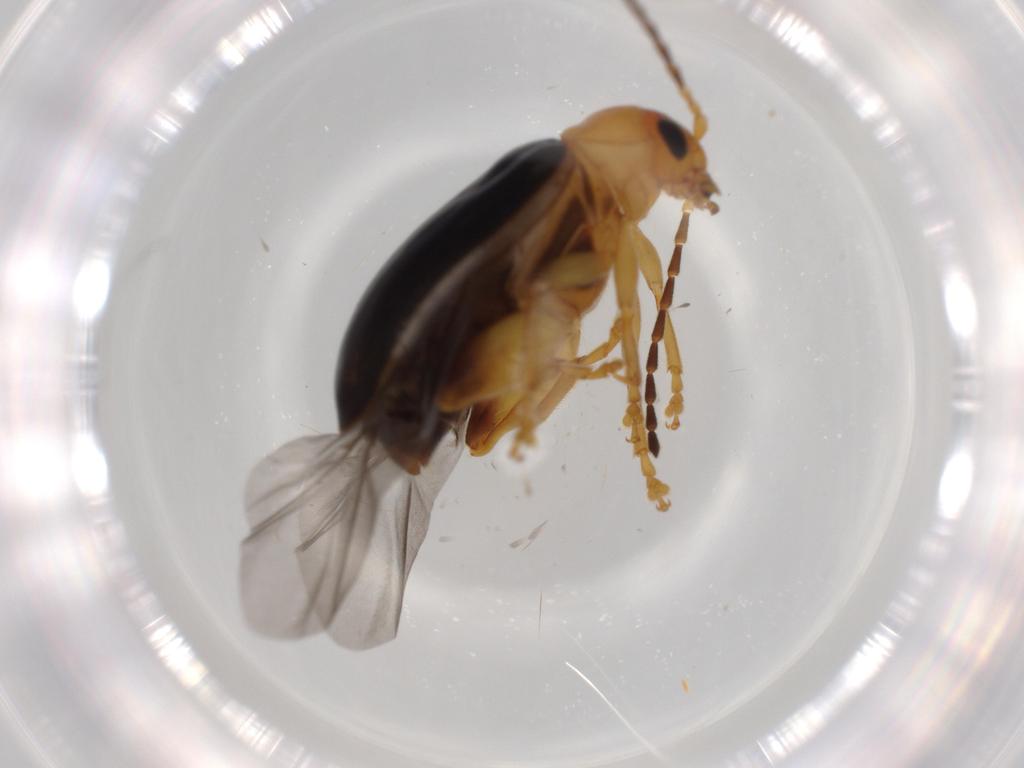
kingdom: Animalia
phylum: Arthropoda
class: Insecta
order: Coleoptera
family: Chrysomelidae
